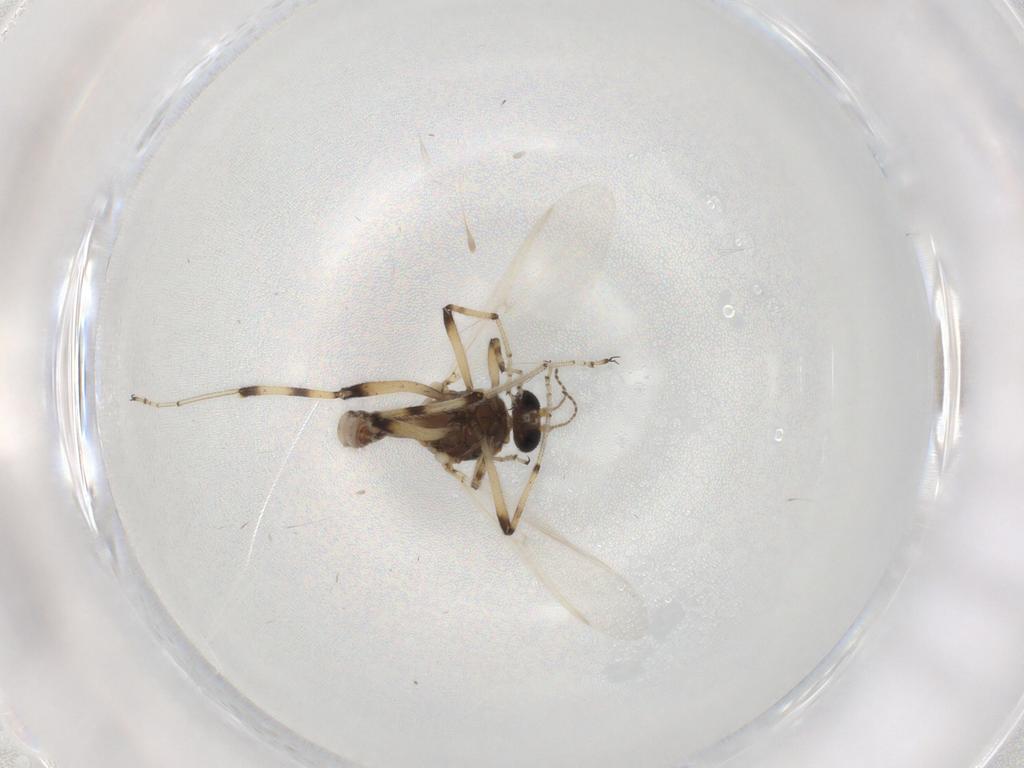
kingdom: Animalia
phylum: Arthropoda
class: Insecta
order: Diptera
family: Ceratopogonidae
